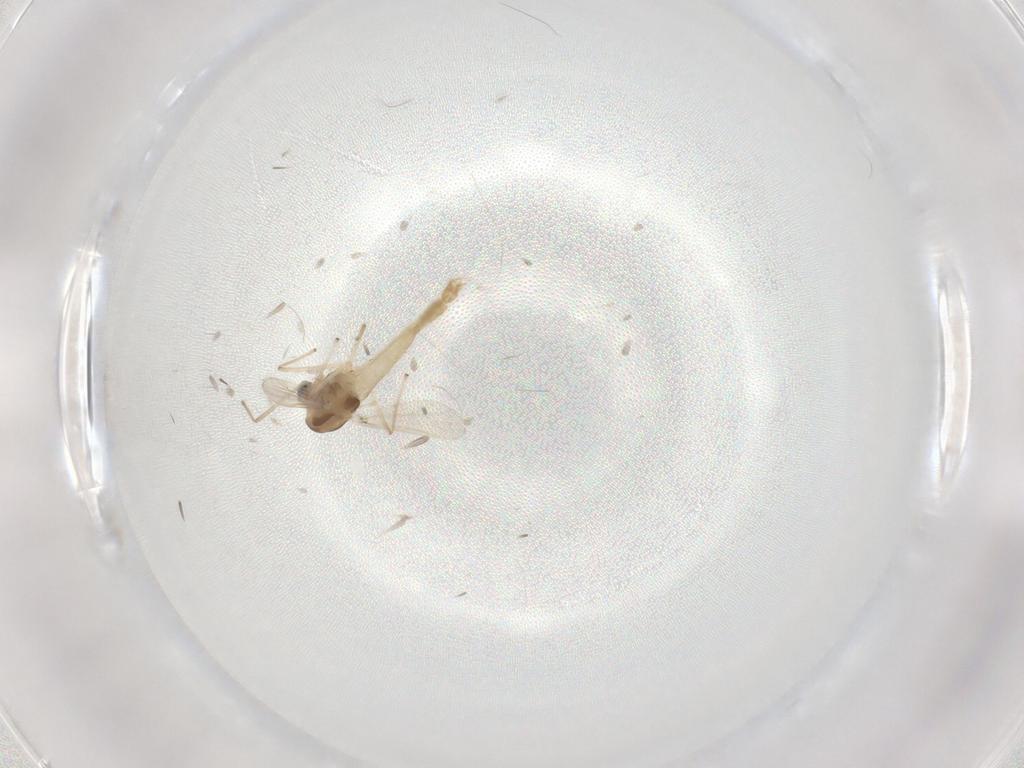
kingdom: Animalia
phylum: Arthropoda
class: Insecta
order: Diptera
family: Chironomidae
